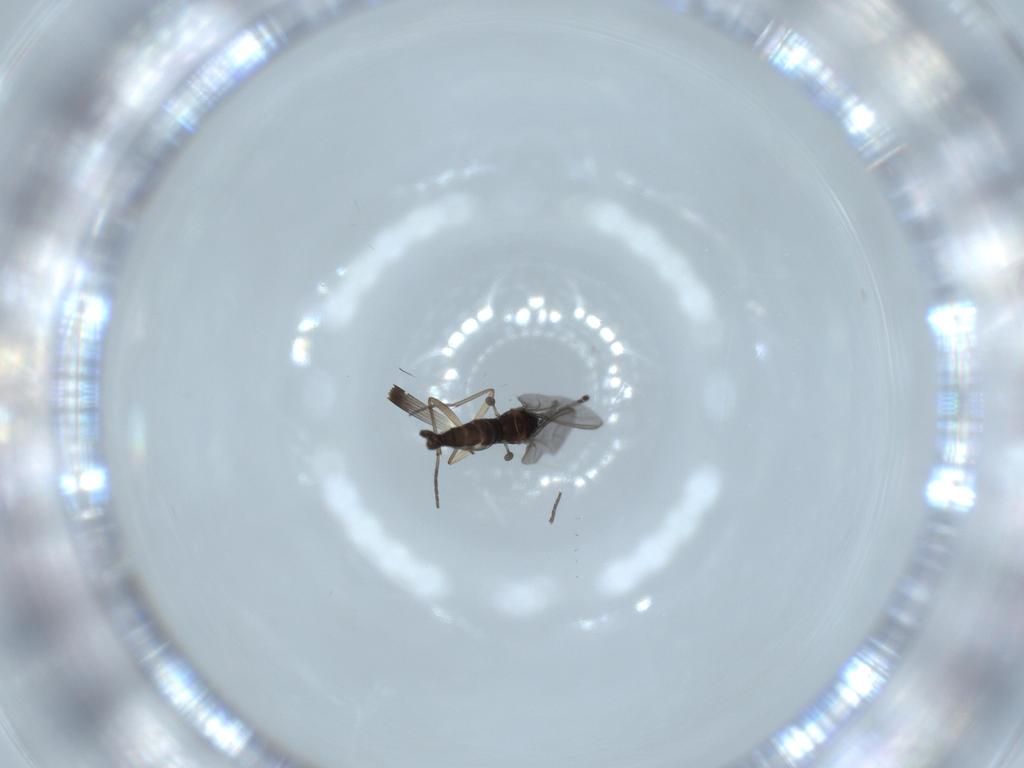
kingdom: Animalia
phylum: Arthropoda
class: Insecta
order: Diptera
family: Sciaridae
